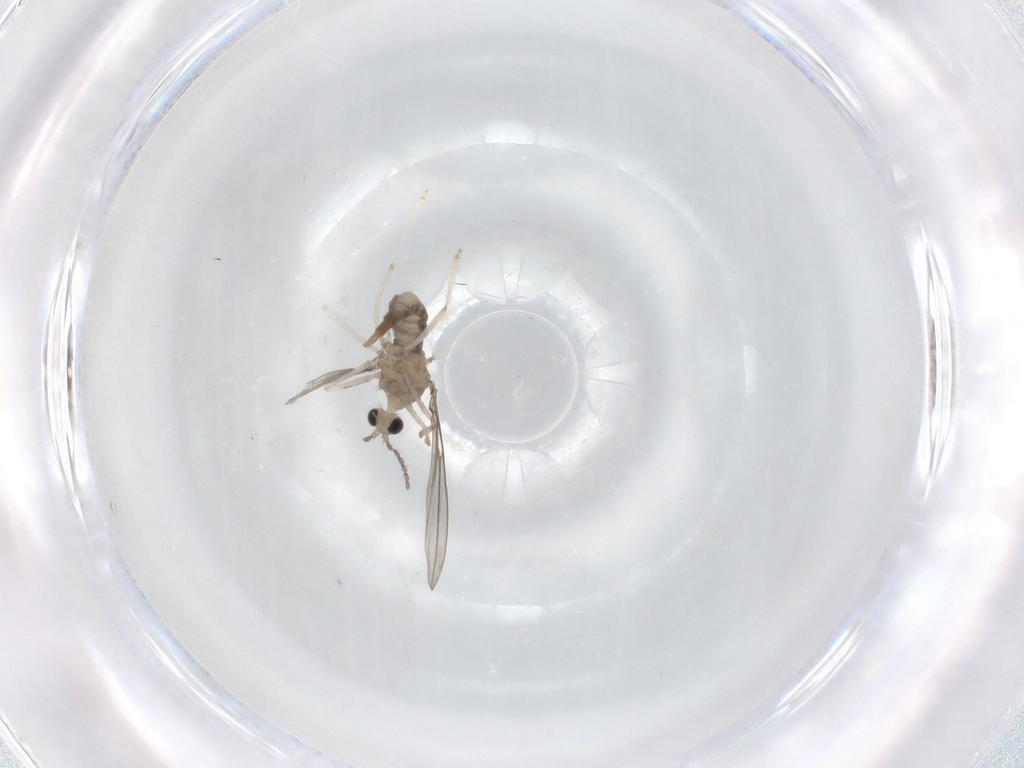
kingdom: Animalia
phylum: Arthropoda
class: Insecta
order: Diptera
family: Cecidomyiidae
